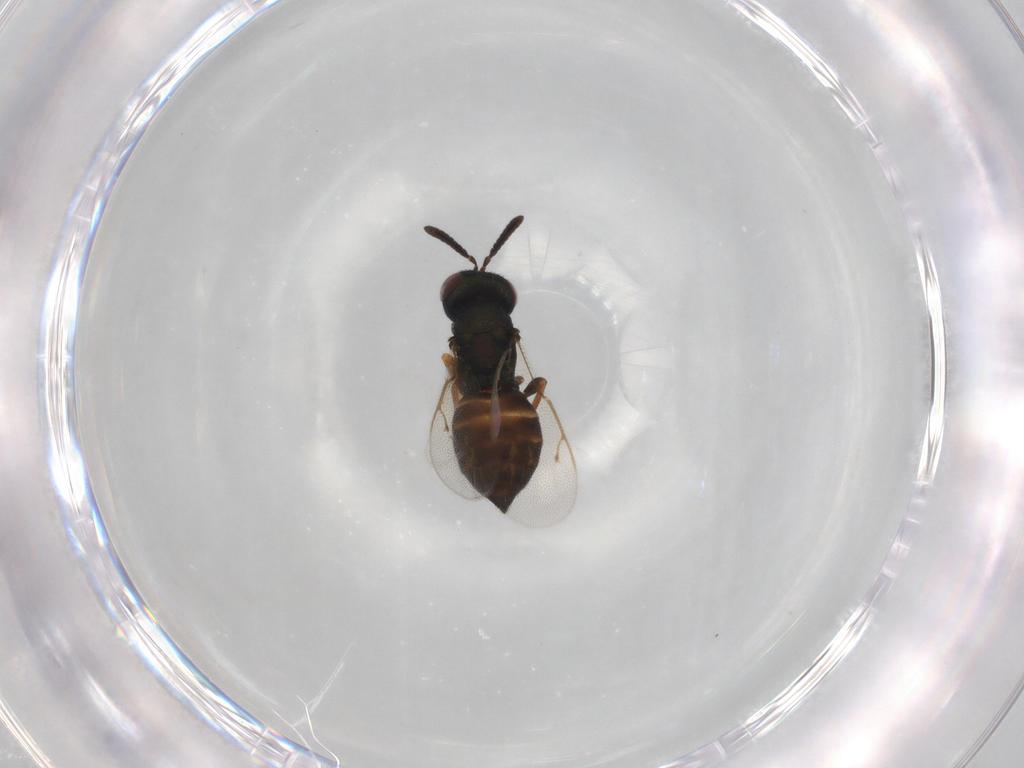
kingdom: Animalia
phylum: Arthropoda
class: Insecta
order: Hymenoptera
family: Pteromalidae
